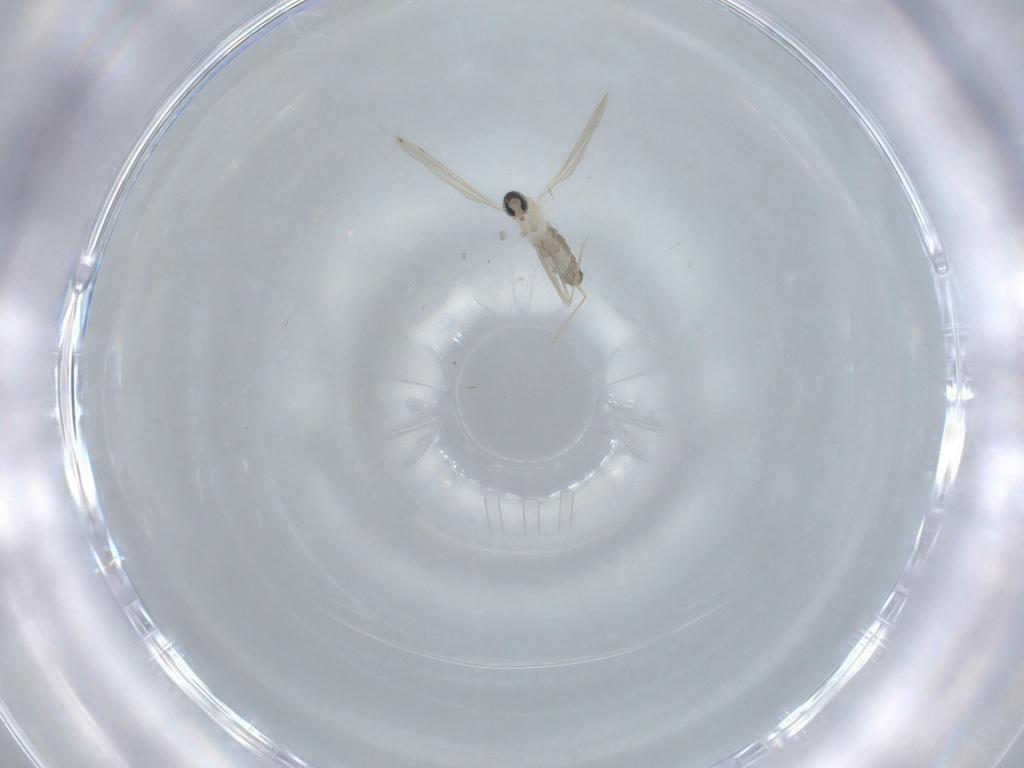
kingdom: Animalia
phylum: Arthropoda
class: Insecta
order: Diptera
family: Cecidomyiidae
